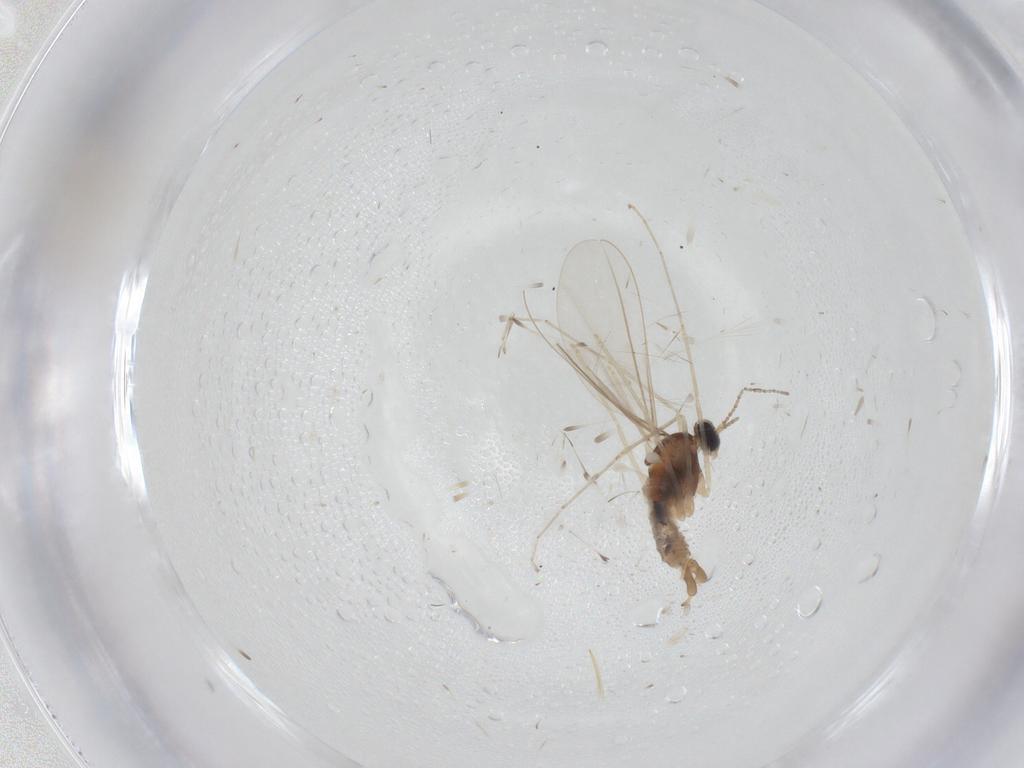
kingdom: Animalia
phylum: Arthropoda
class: Insecta
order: Diptera
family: Cecidomyiidae
